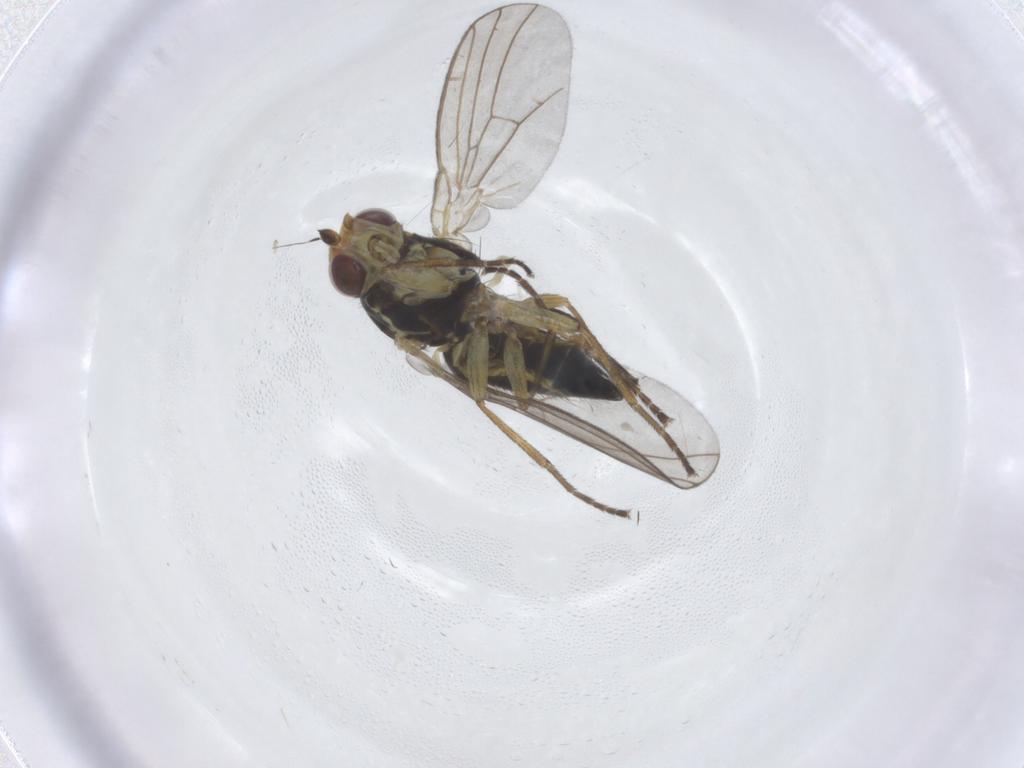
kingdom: Animalia
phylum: Arthropoda
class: Insecta
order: Diptera
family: Agromyzidae
